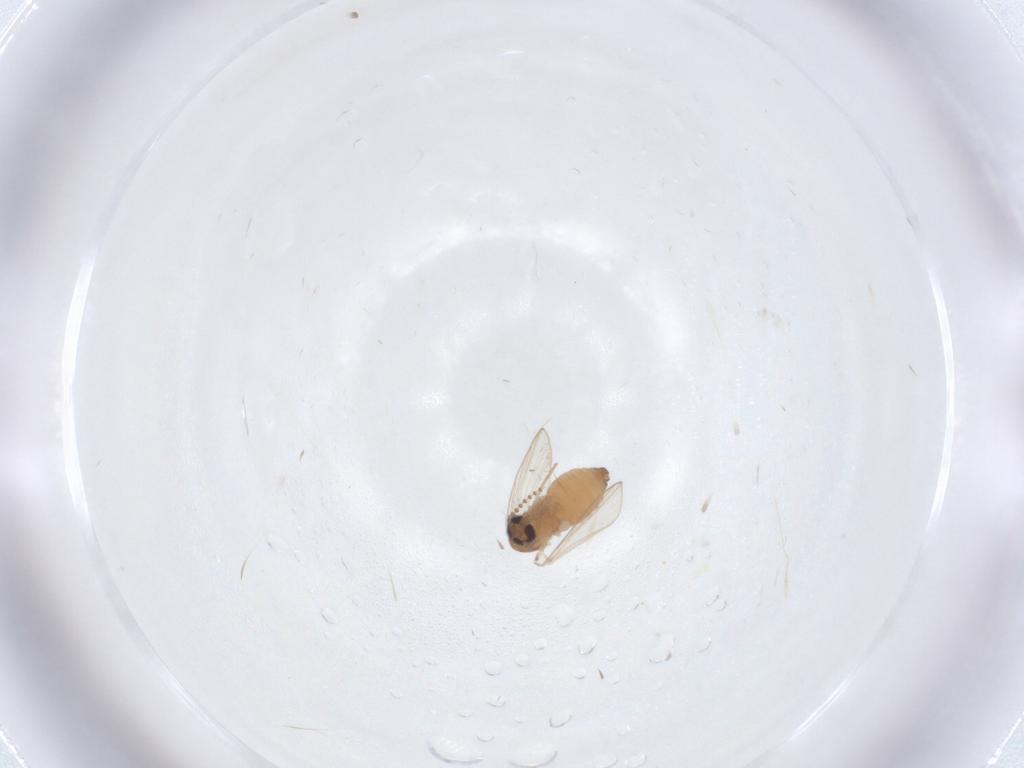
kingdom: Animalia
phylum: Arthropoda
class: Insecta
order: Diptera
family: Psychodidae
